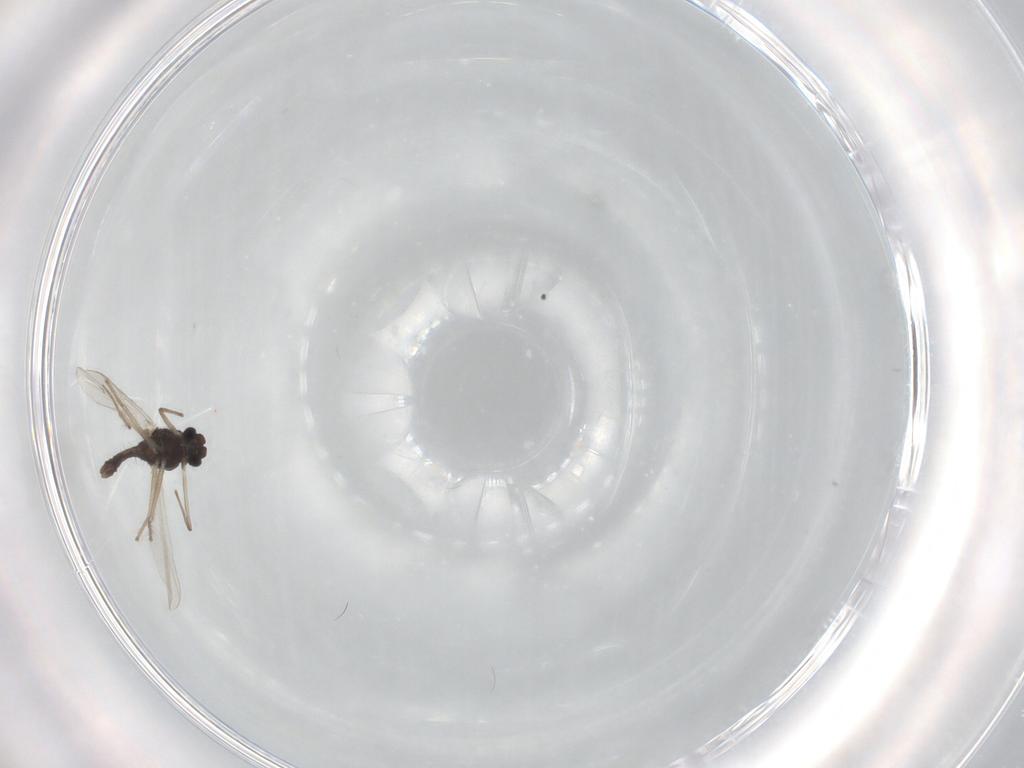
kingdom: Animalia
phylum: Arthropoda
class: Insecta
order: Diptera
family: Chironomidae
